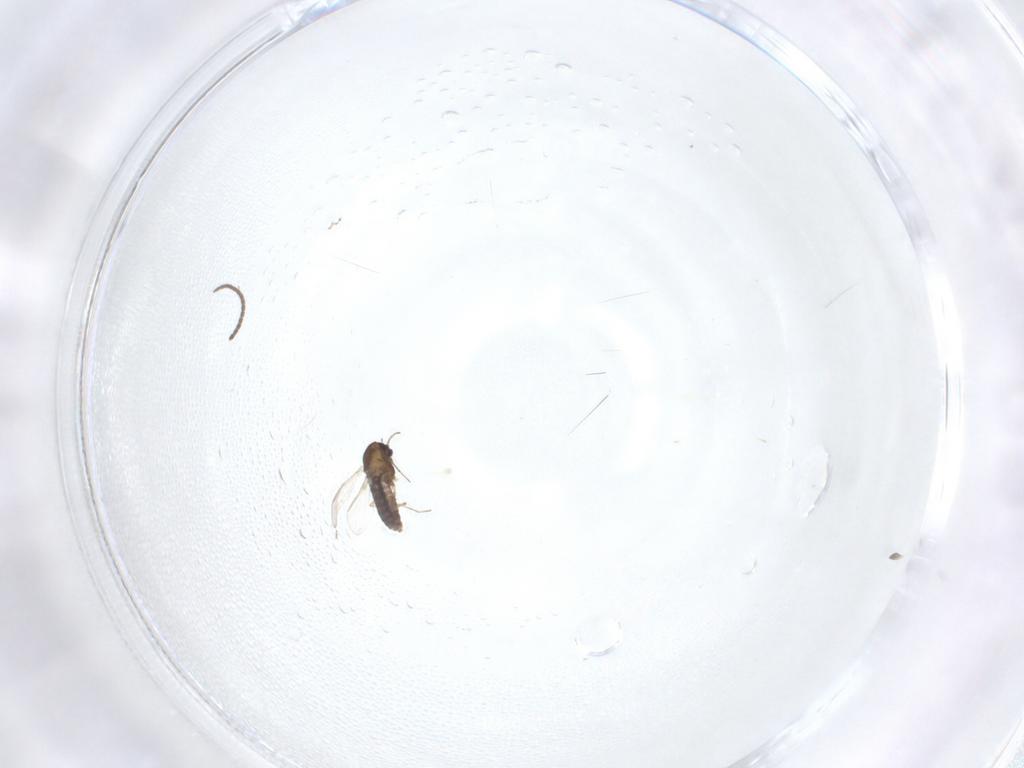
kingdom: Animalia
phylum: Arthropoda
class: Insecta
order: Diptera
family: Chironomidae
